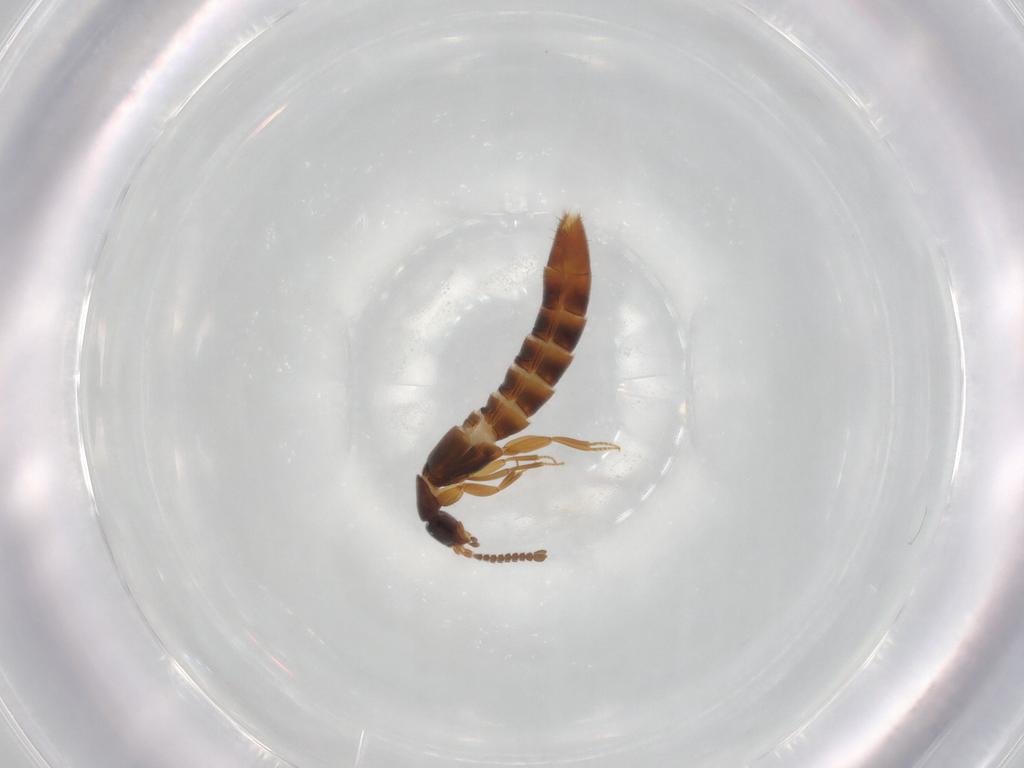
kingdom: Animalia
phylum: Arthropoda
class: Insecta
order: Coleoptera
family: Staphylinidae
